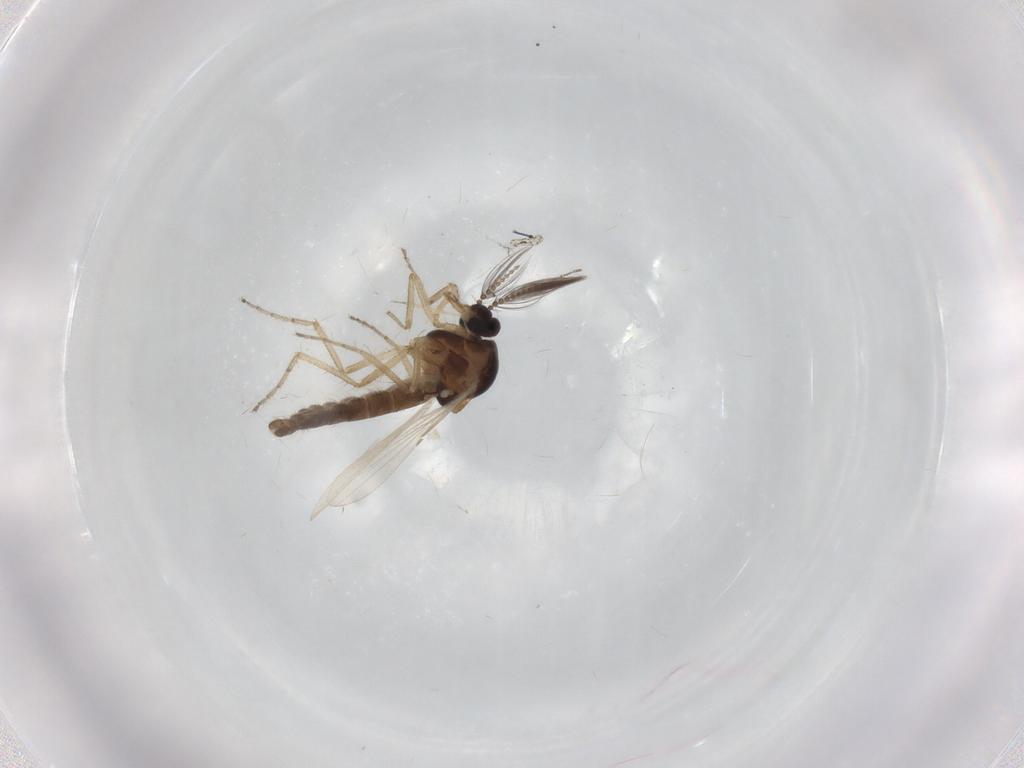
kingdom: Animalia
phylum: Arthropoda
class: Insecta
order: Diptera
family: Ceratopogonidae
